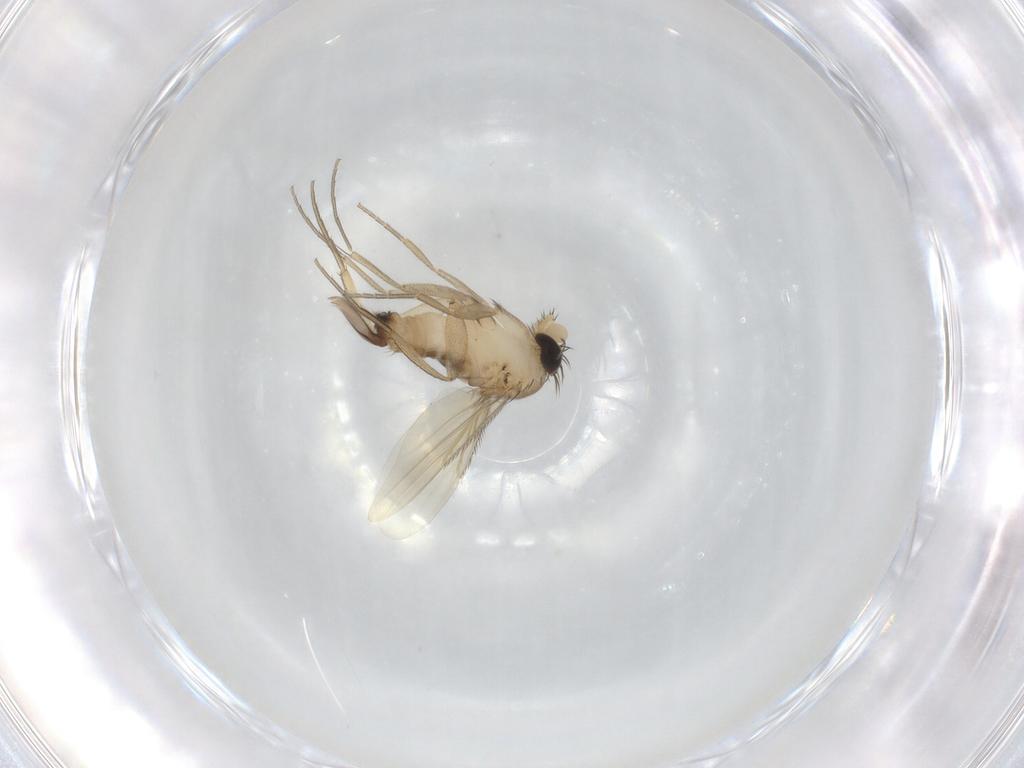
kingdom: Animalia
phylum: Arthropoda
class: Insecta
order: Diptera
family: Phoridae
